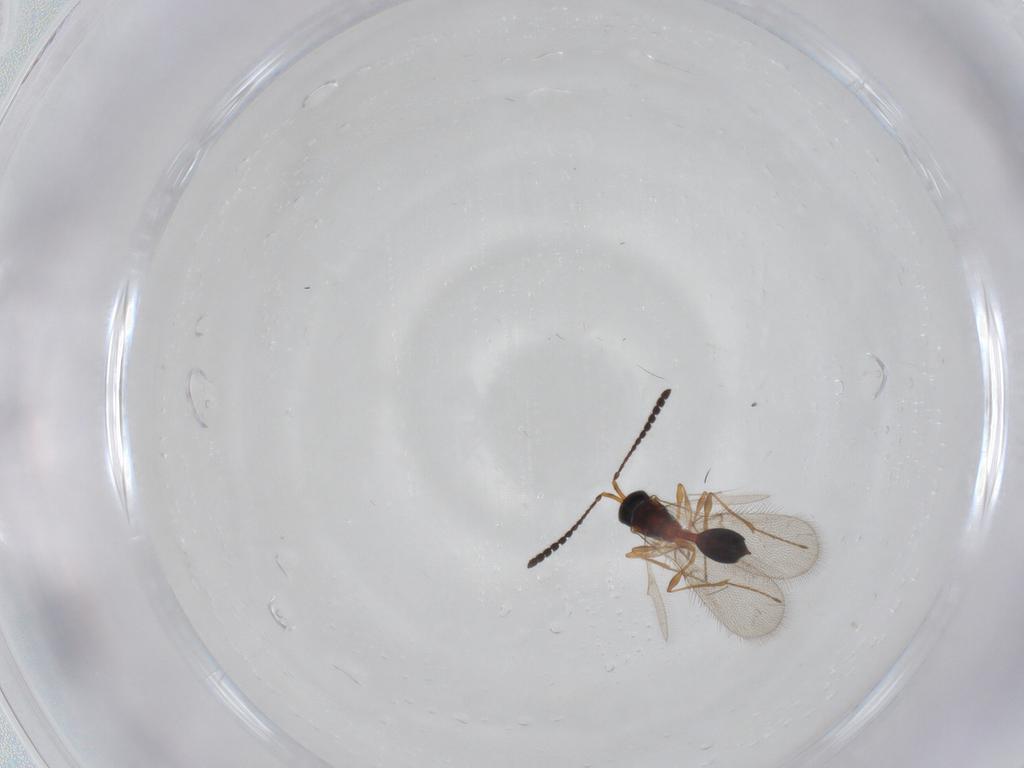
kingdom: Animalia
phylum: Arthropoda
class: Insecta
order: Hymenoptera
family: Diapriidae
